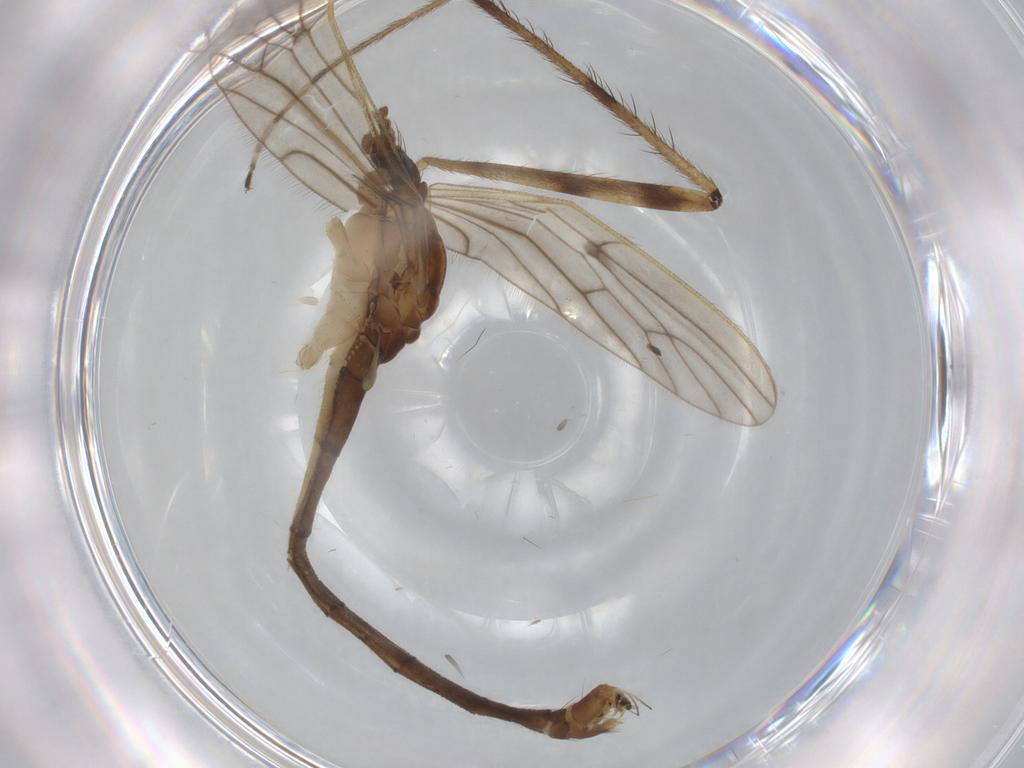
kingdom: Animalia
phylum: Arthropoda
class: Insecta
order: Diptera
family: Limoniidae
